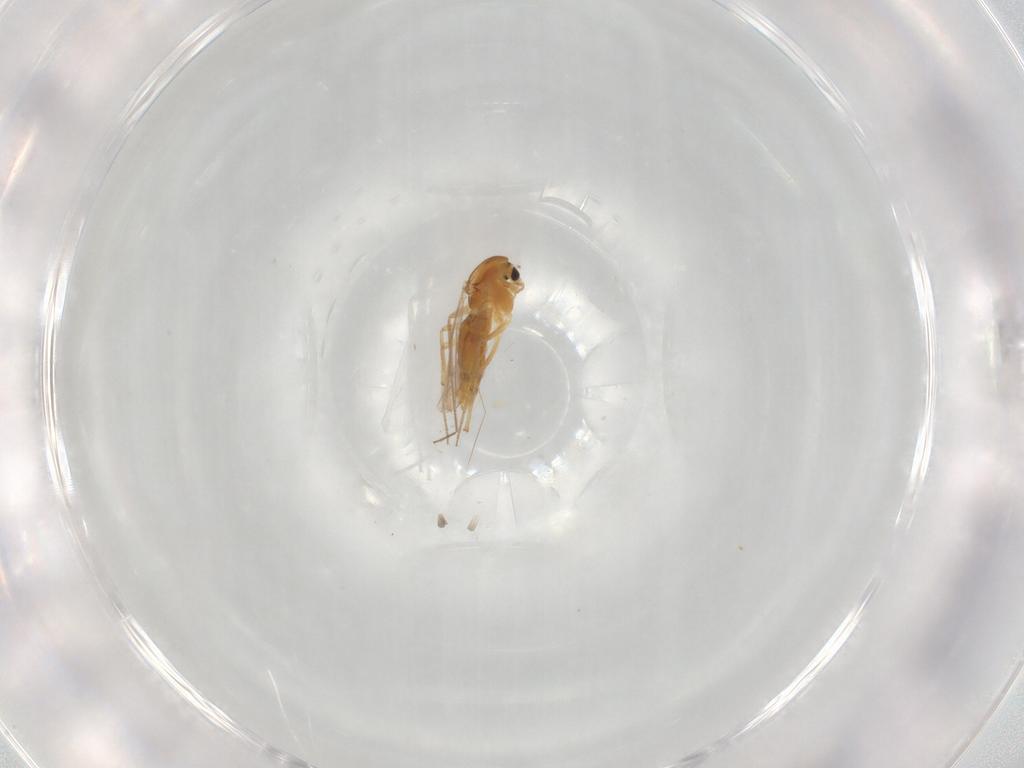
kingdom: Animalia
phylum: Arthropoda
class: Insecta
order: Diptera
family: Chironomidae
